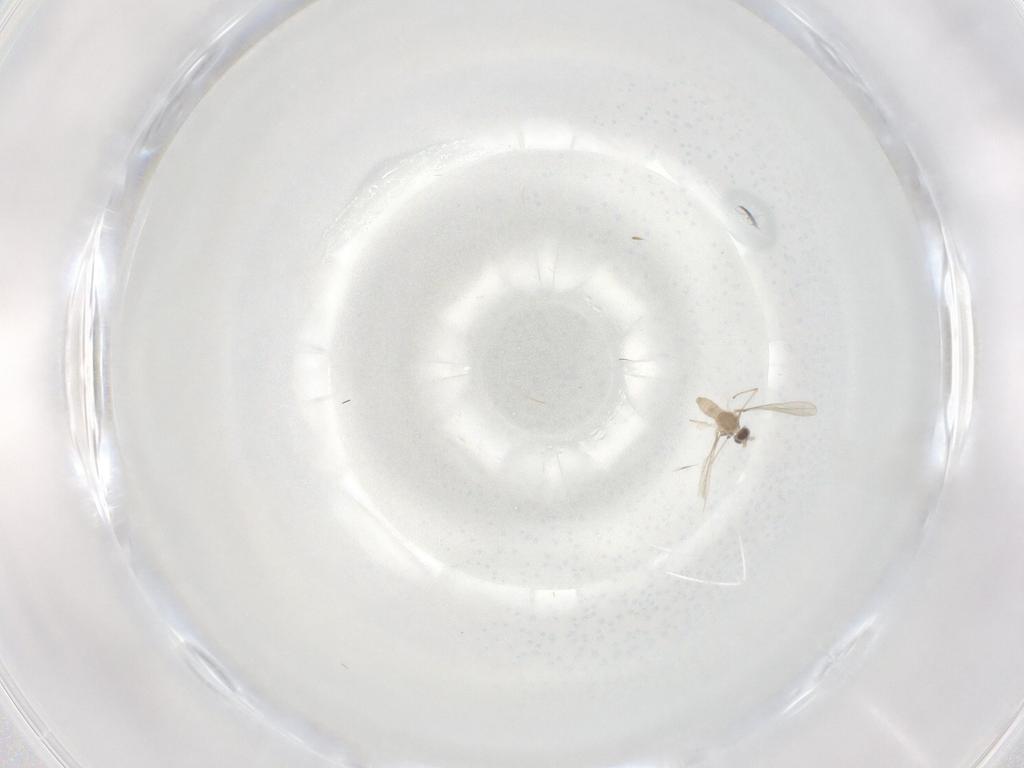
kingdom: Animalia
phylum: Arthropoda
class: Insecta
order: Diptera
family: Cecidomyiidae
